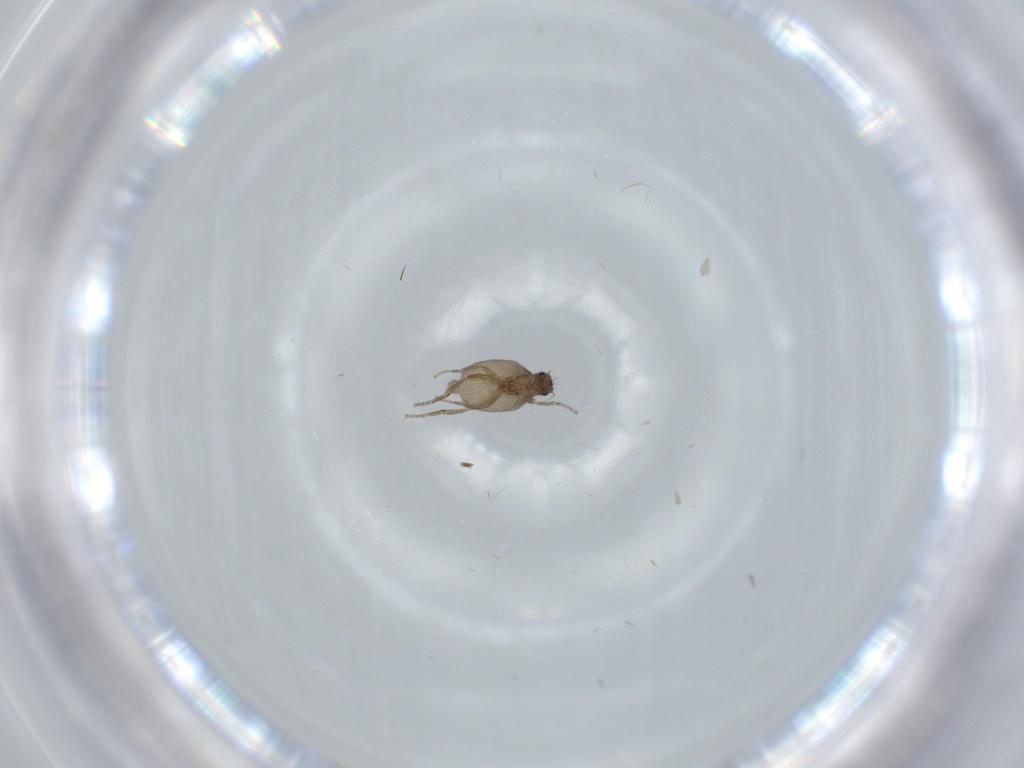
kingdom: Animalia
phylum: Arthropoda
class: Insecta
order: Diptera
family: Phoridae
